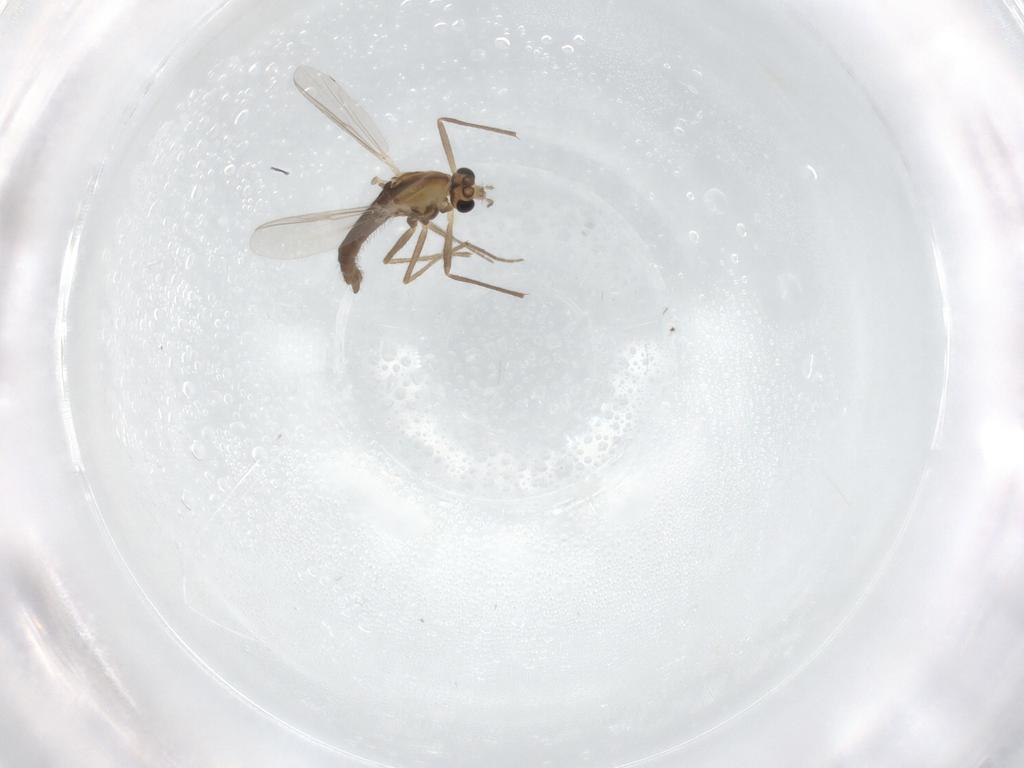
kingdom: Animalia
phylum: Arthropoda
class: Insecta
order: Diptera
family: Chironomidae
